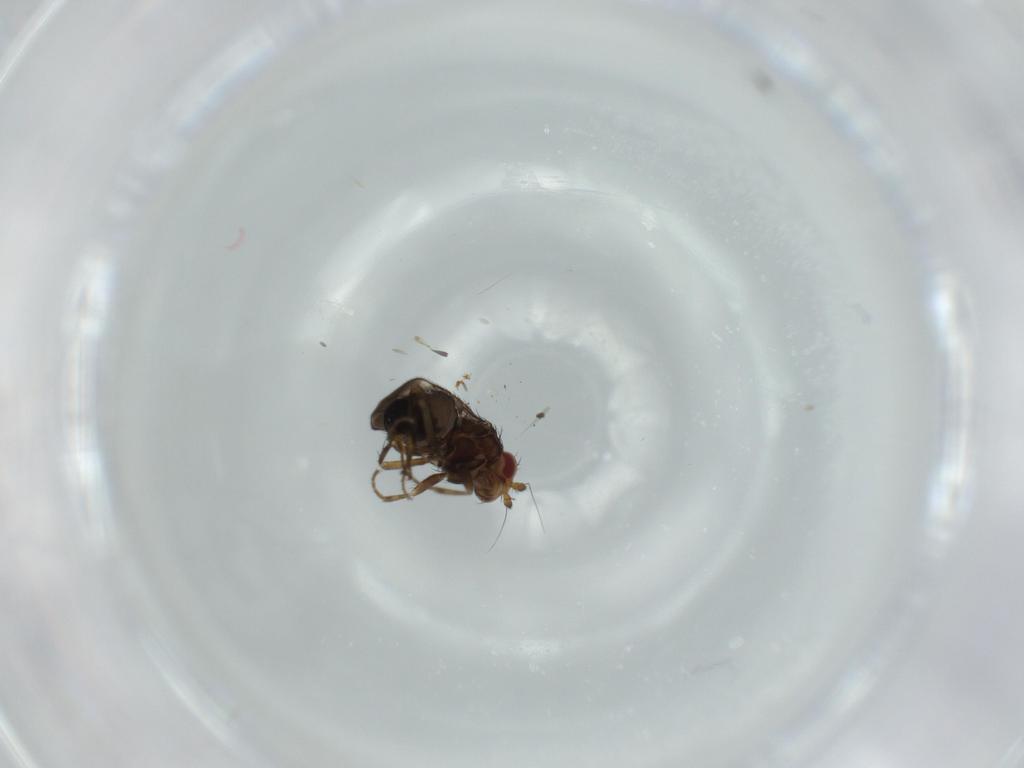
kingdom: Animalia
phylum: Arthropoda
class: Insecta
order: Diptera
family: Sphaeroceridae
